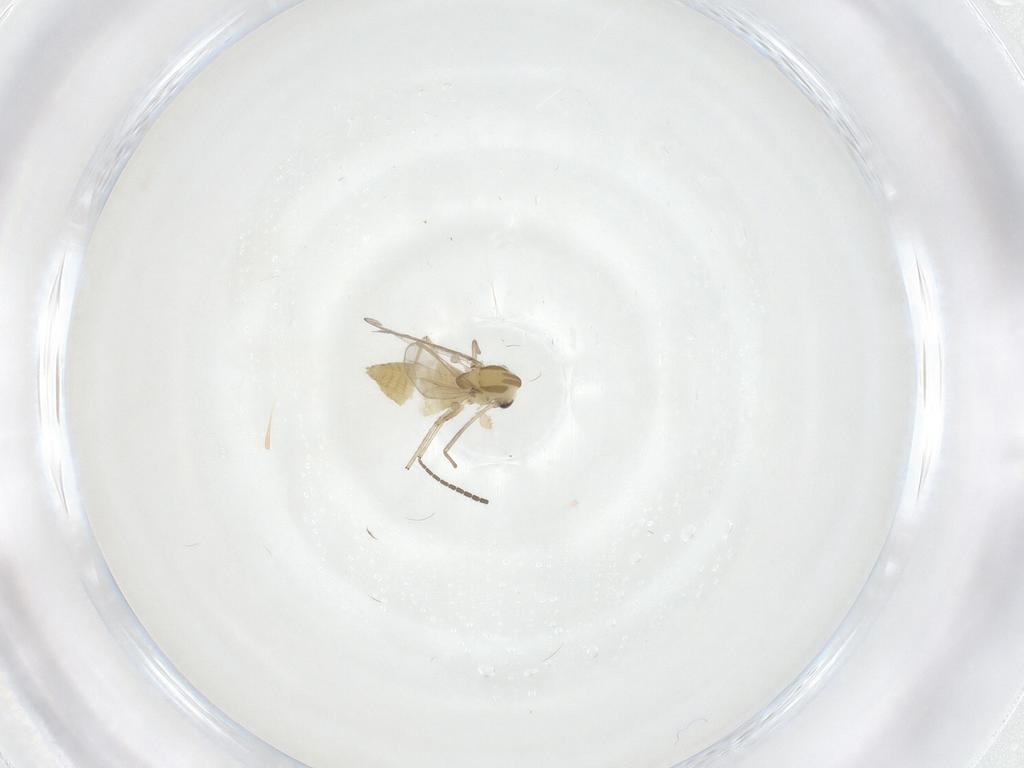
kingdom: Animalia
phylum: Arthropoda
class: Insecta
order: Diptera
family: Chironomidae
